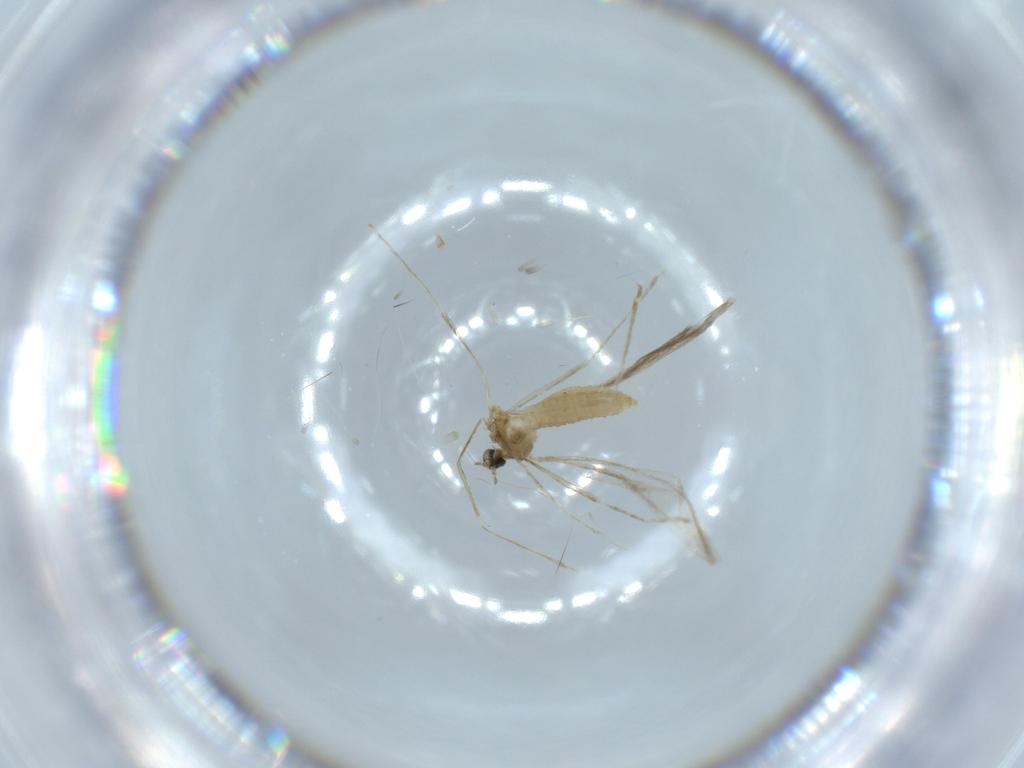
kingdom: Animalia
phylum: Arthropoda
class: Insecta
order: Diptera
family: Cecidomyiidae
